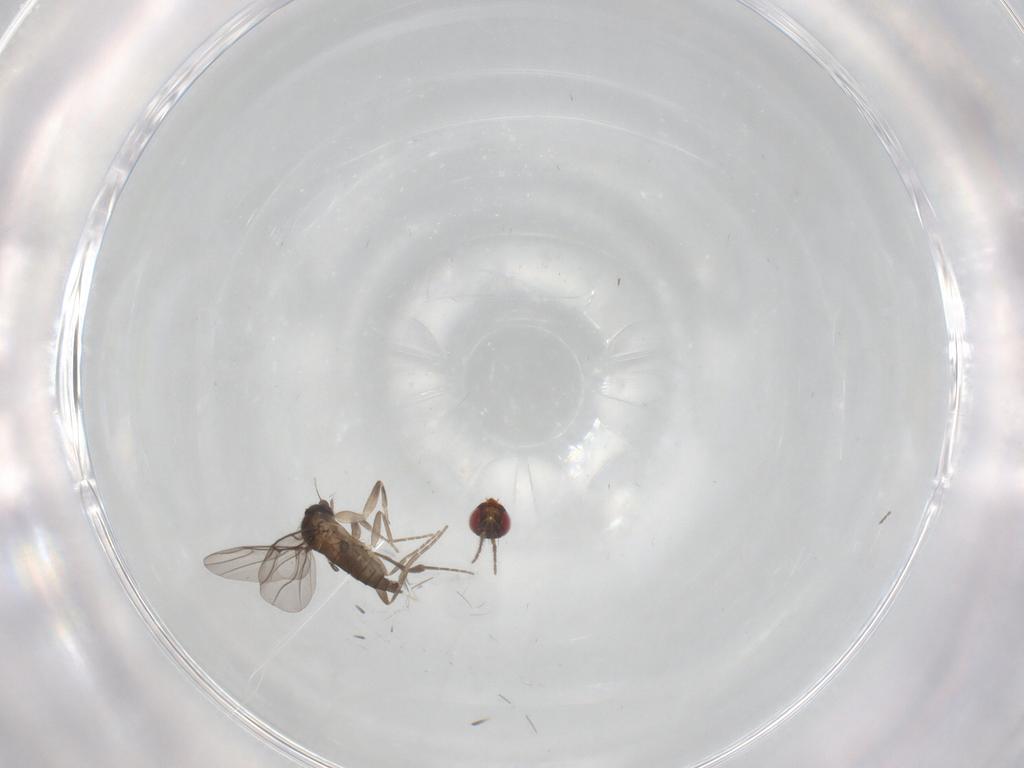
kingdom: Animalia
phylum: Arthropoda
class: Insecta
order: Diptera
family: Phoridae
